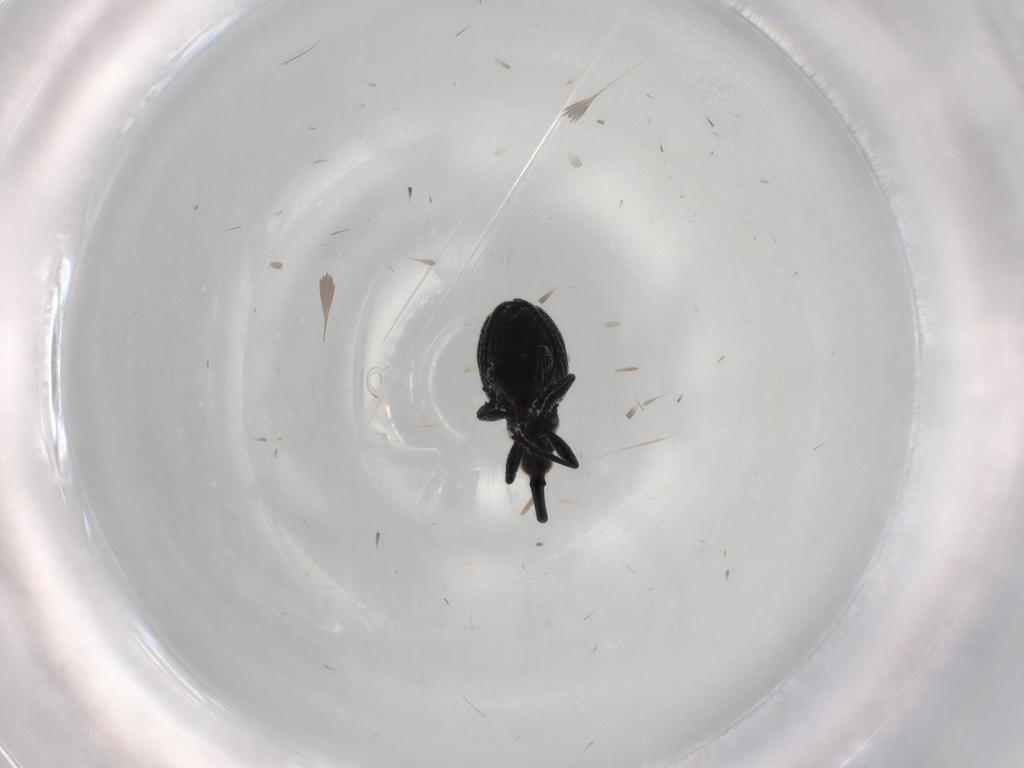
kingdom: Animalia
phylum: Arthropoda
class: Insecta
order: Coleoptera
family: Brentidae
